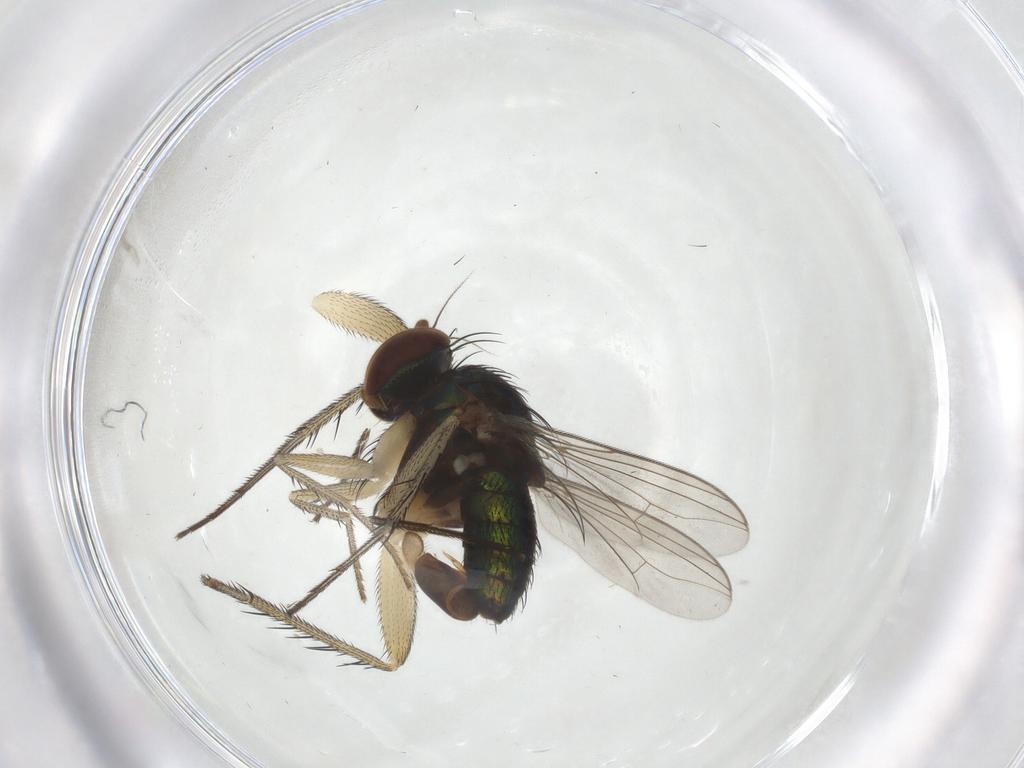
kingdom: Animalia
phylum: Arthropoda
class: Insecta
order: Diptera
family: Dolichopodidae
